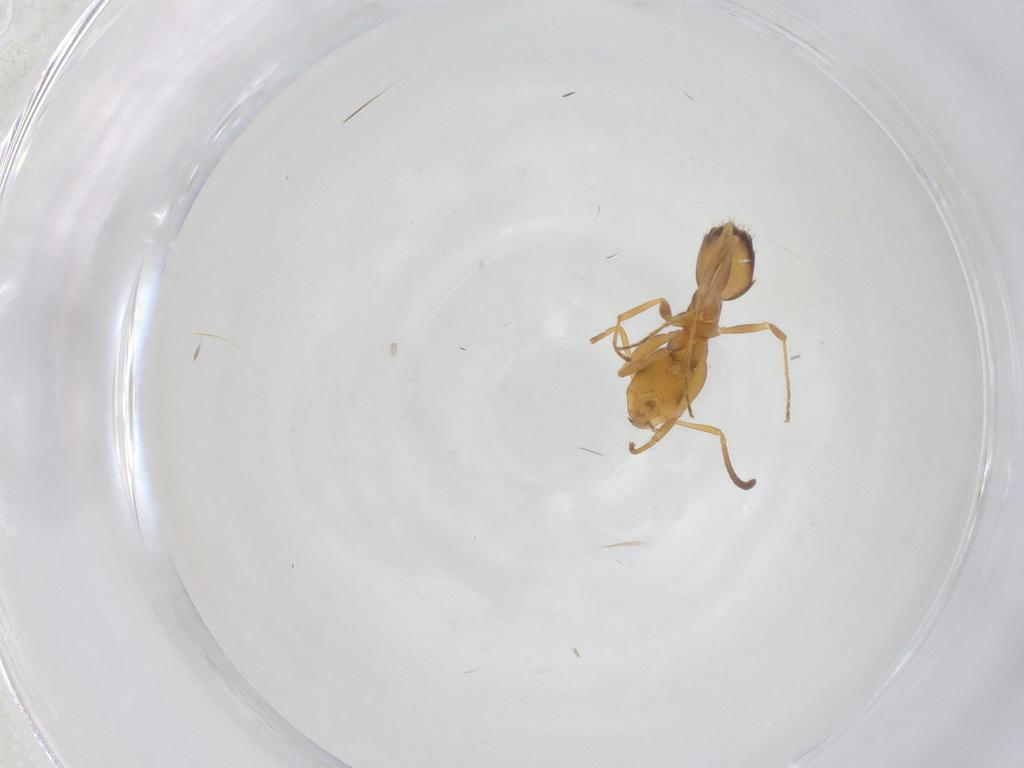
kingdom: Animalia
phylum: Arthropoda
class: Insecta
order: Hymenoptera
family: Formicidae
